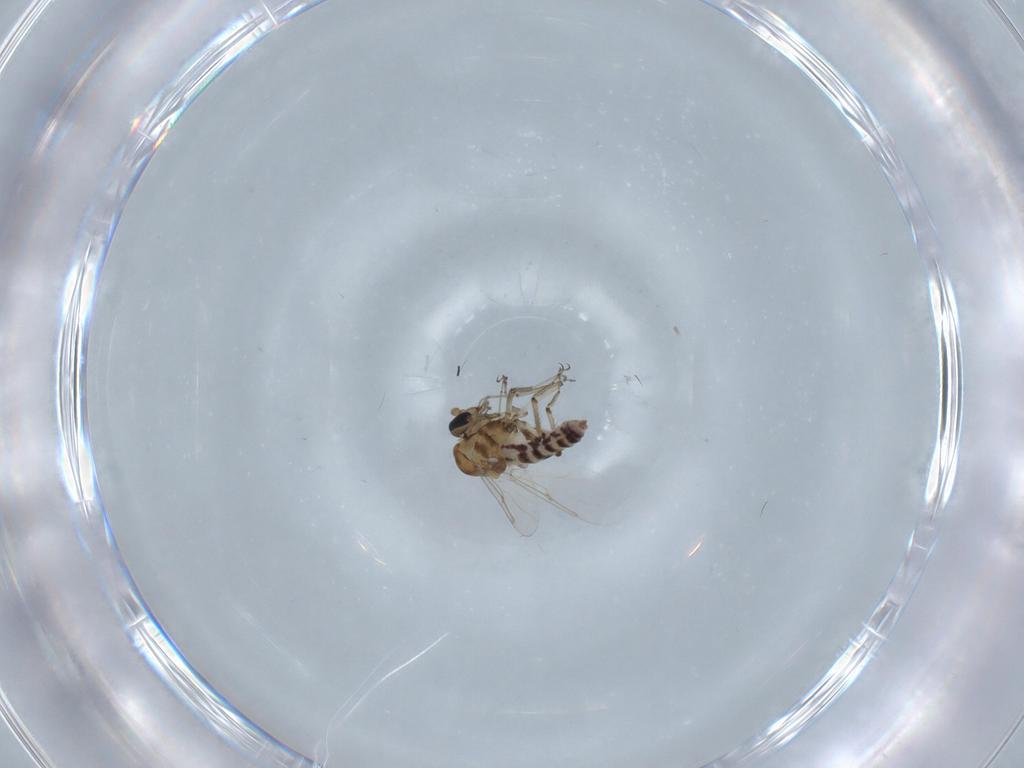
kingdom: Animalia
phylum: Arthropoda
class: Insecta
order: Diptera
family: Ceratopogonidae
